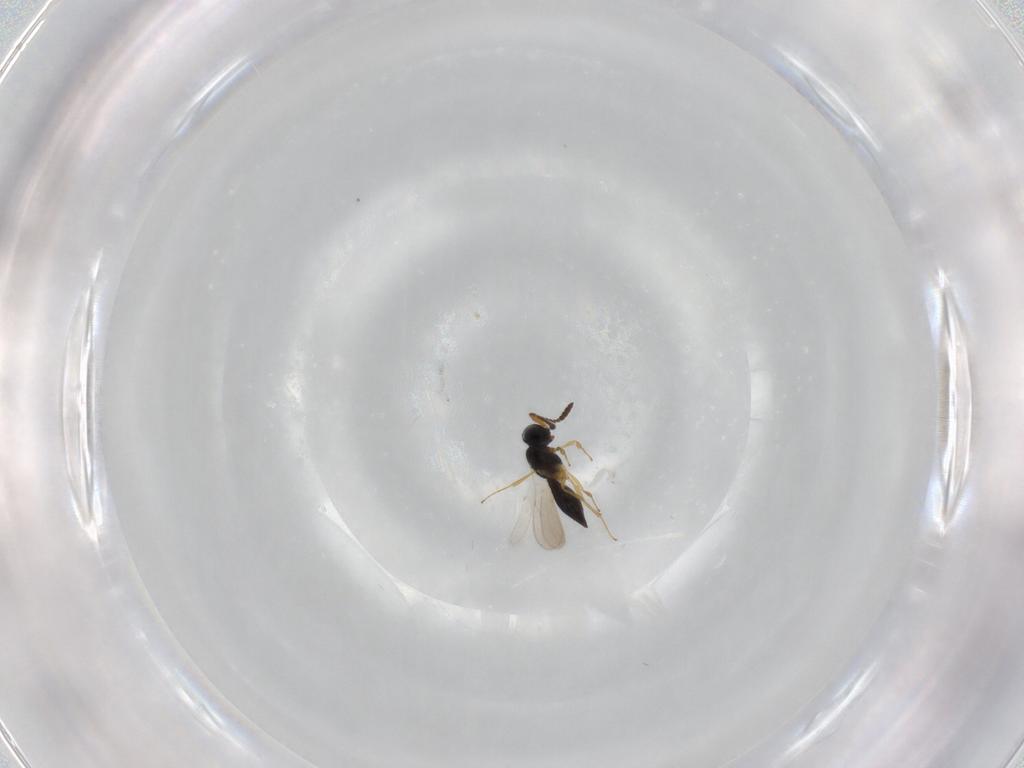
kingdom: Animalia
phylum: Arthropoda
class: Insecta
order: Hymenoptera
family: Scelionidae
